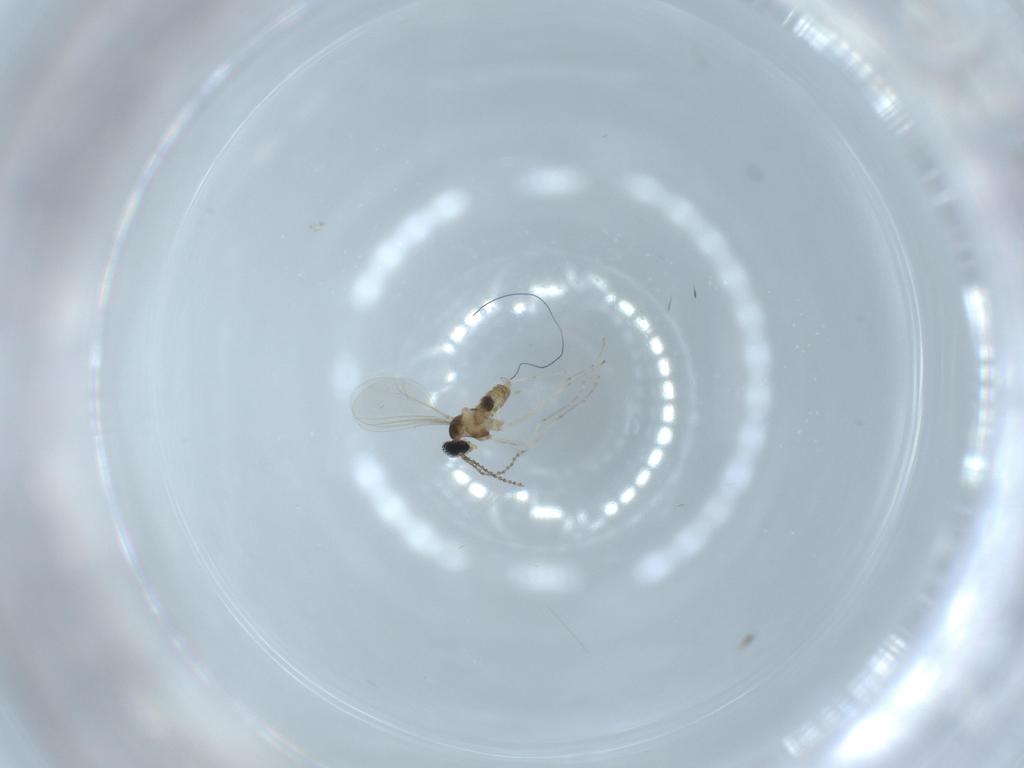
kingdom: Animalia
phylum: Arthropoda
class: Insecta
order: Diptera
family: Cecidomyiidae
